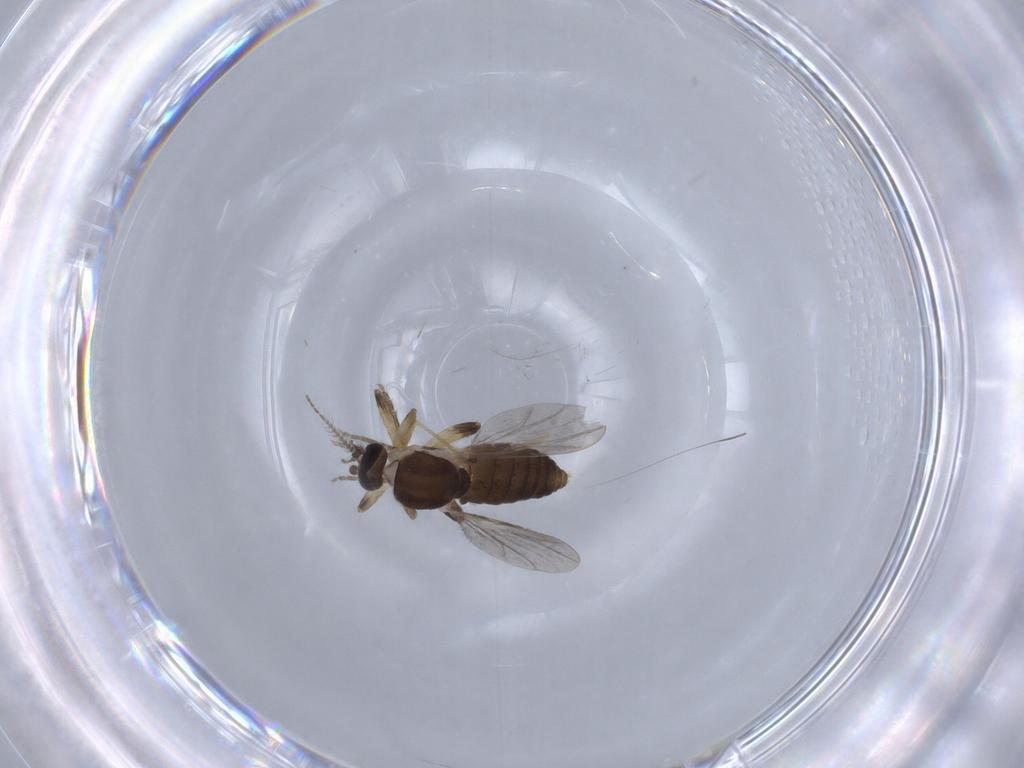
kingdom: Animalia
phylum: Arthropoda
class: Insecta
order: Diptera
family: Ceratopogonidae
